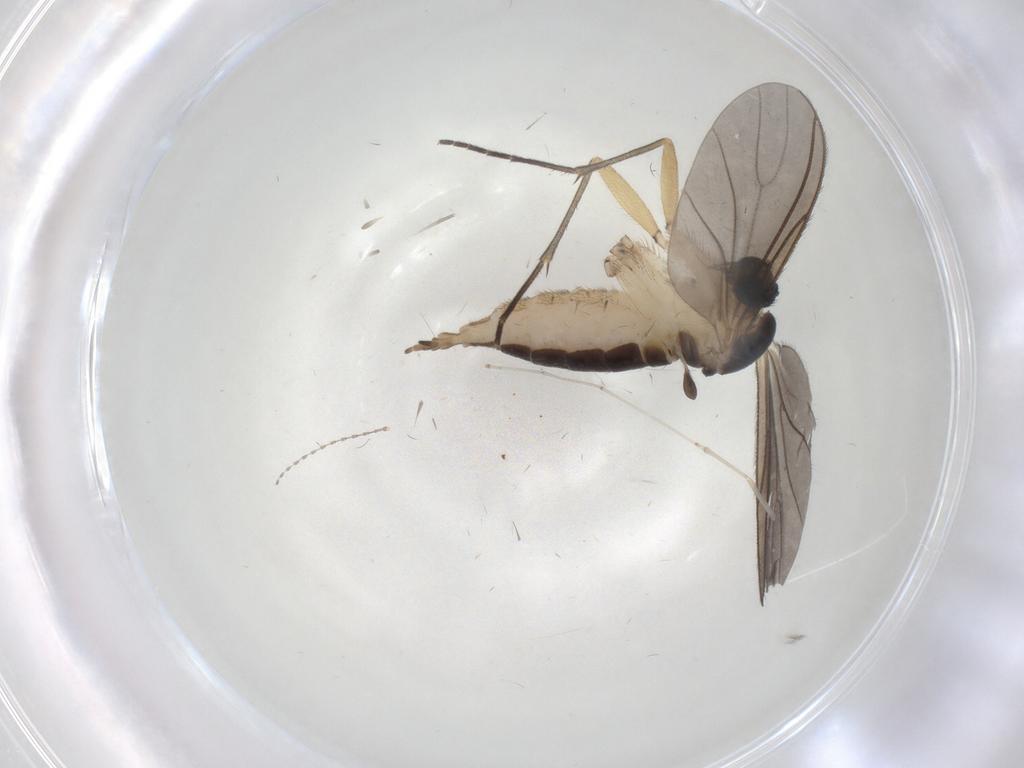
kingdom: Animalia
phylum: Arthropoda
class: Insecta
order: Diptera
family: Sciaridae
